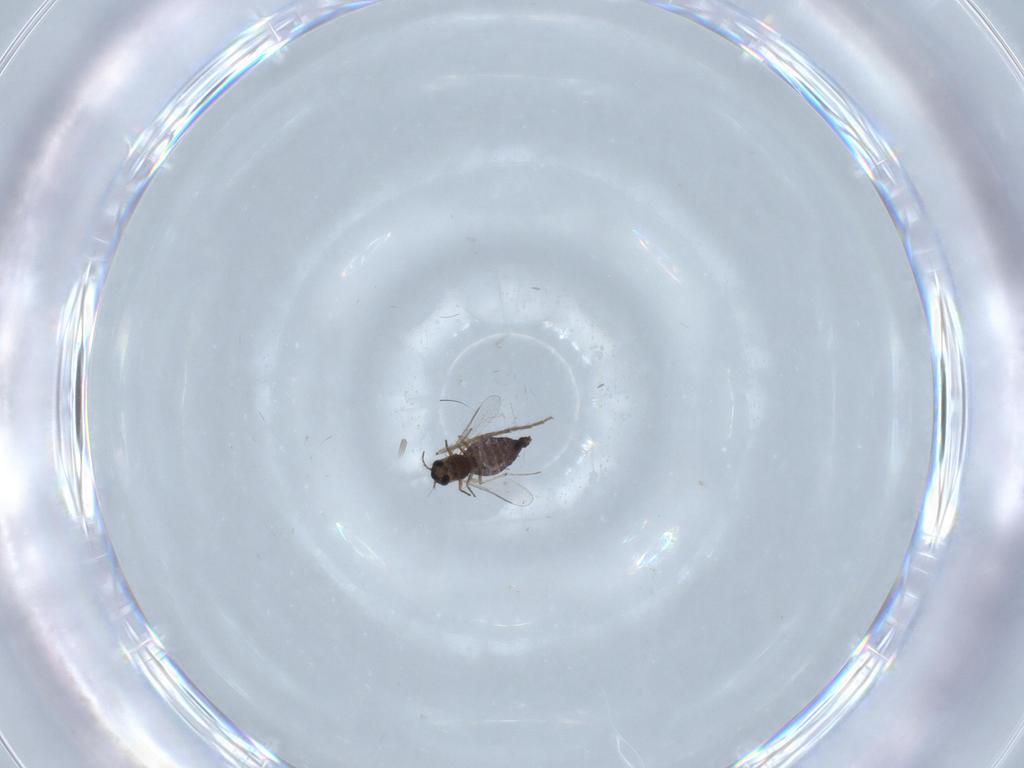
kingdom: Animalia
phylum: Arthropoda
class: Insecta
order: Diptera
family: Chironomidae
